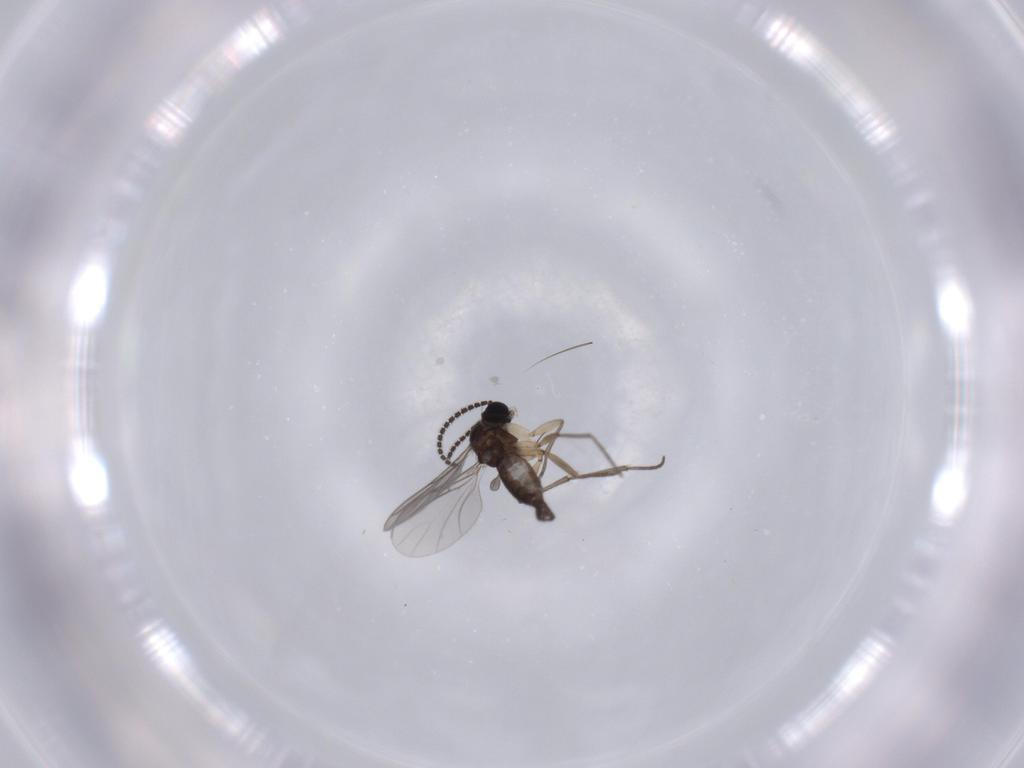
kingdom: Animalia
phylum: Arthropoda
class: Insecta
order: Diptera
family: Ceratopogonidae
